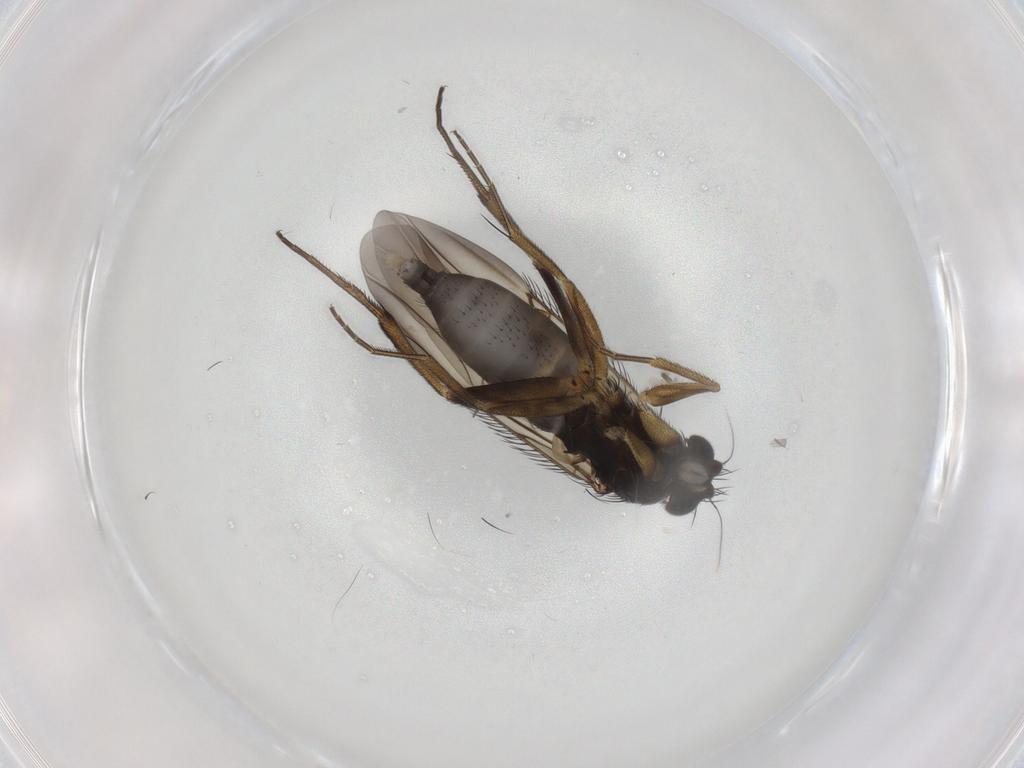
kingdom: Animalia
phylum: Arthropoda
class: Insecta
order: Diptera
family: Phoridae
